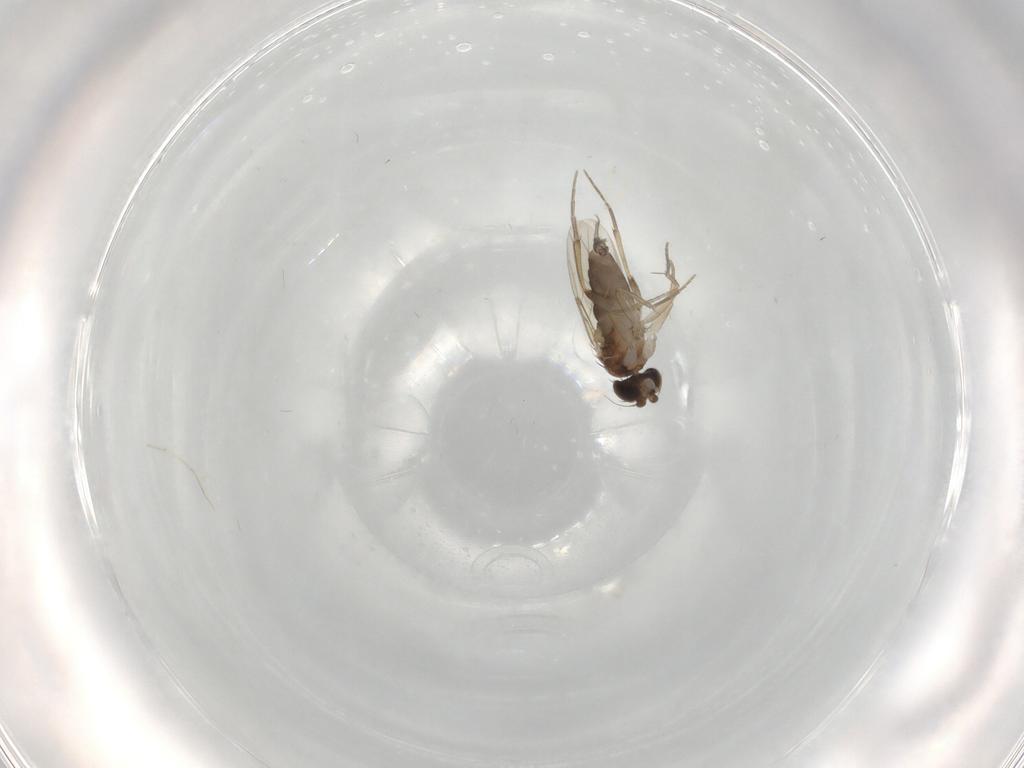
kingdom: Animalia
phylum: Arthropoda
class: Insecta
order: Diptera
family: Phoridae
